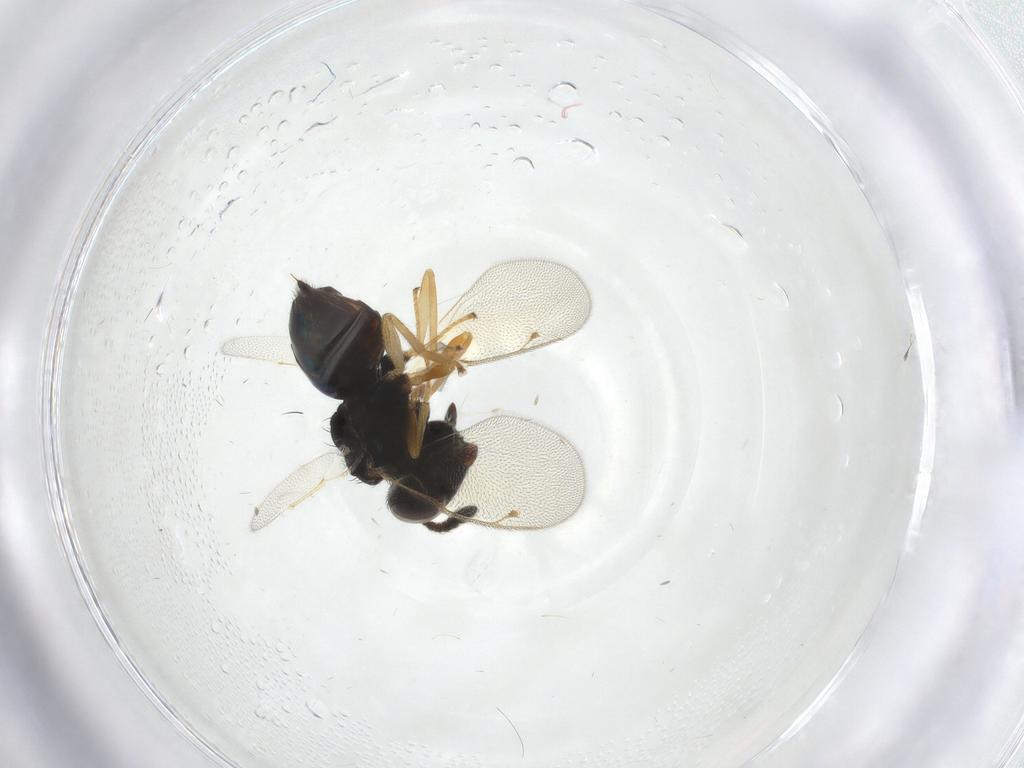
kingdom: Animalia
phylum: Arthropoda
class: Insecta
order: Hymenoptera
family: Pteromalidae
